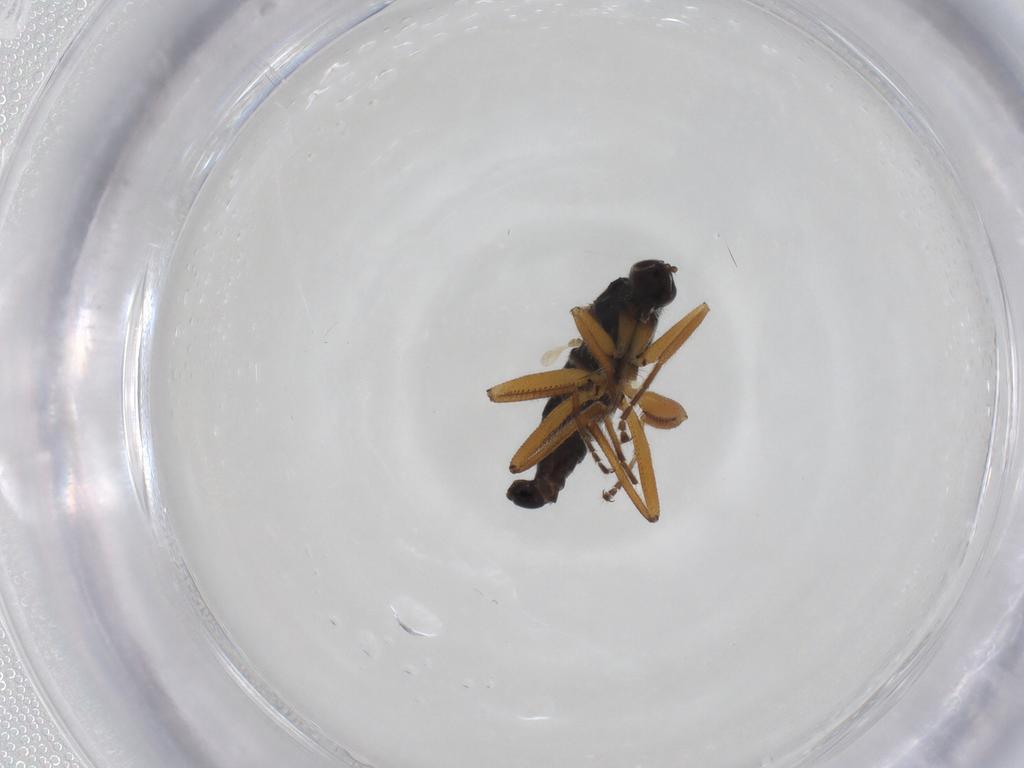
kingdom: Animalia
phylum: Arthropoda
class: Insecta
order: Diptera
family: Hybotidae
